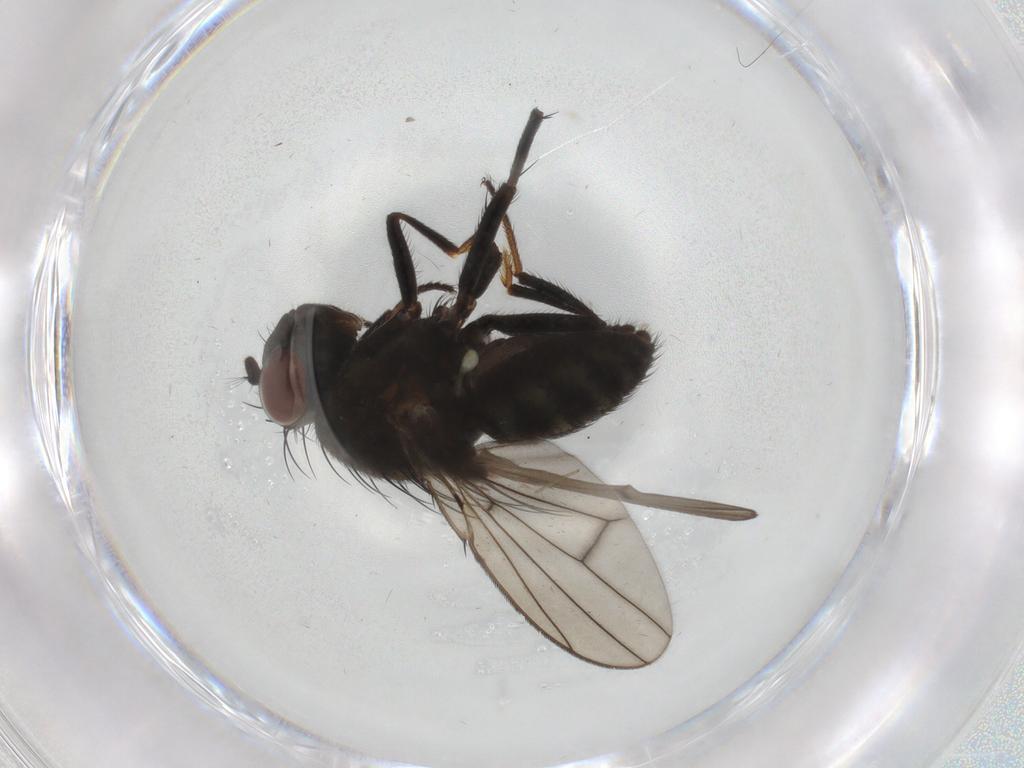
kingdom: Animalia
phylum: Arthropoda
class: Insecta
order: Diptera
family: Ephydridae
